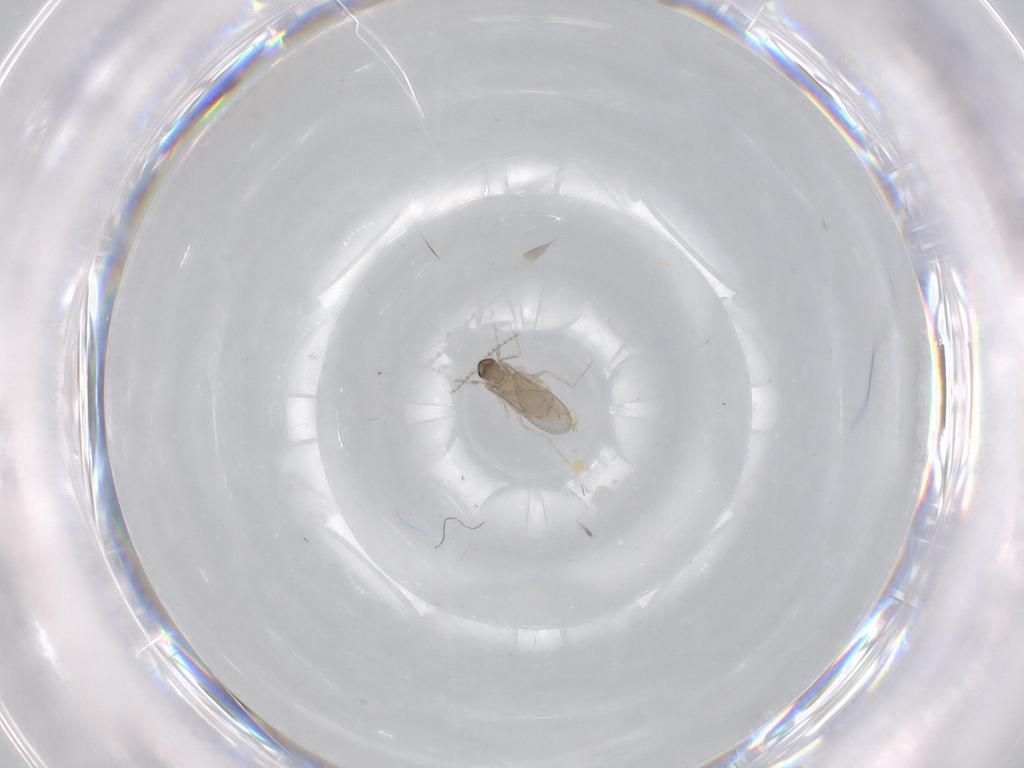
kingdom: Animalia
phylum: Arthropoda
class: Insecta
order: Diptera
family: Cecidomyiidae
